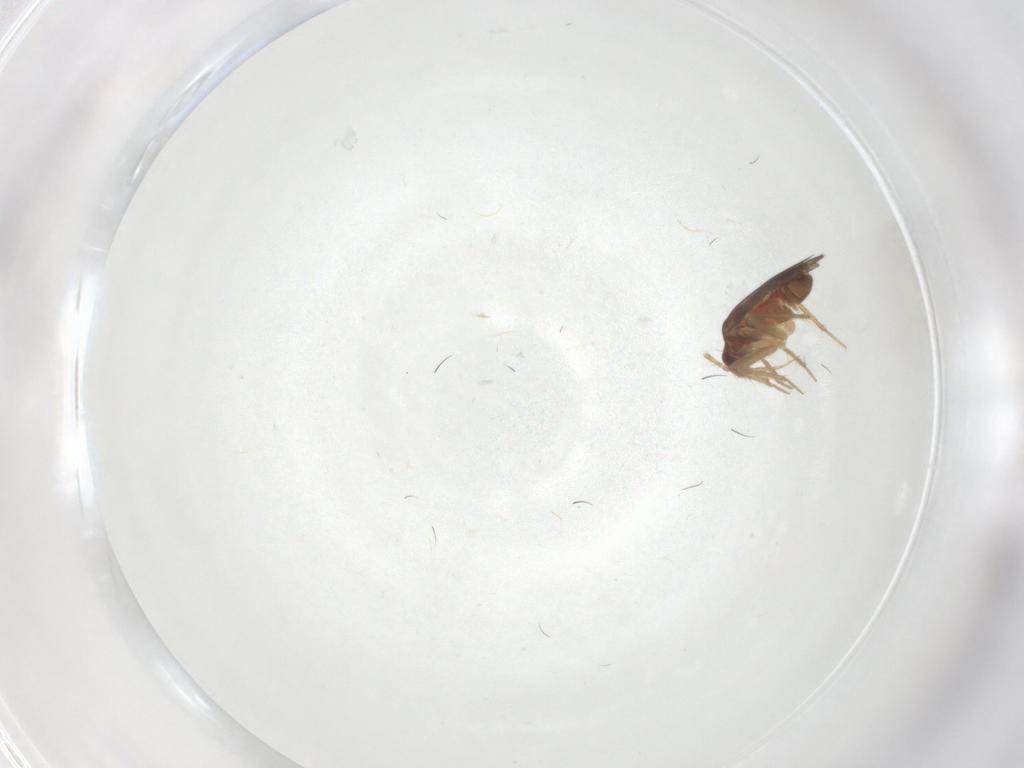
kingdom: Animalia
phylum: Arthropoda
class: Insecta
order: Hemiptera
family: Ceratocombidae
